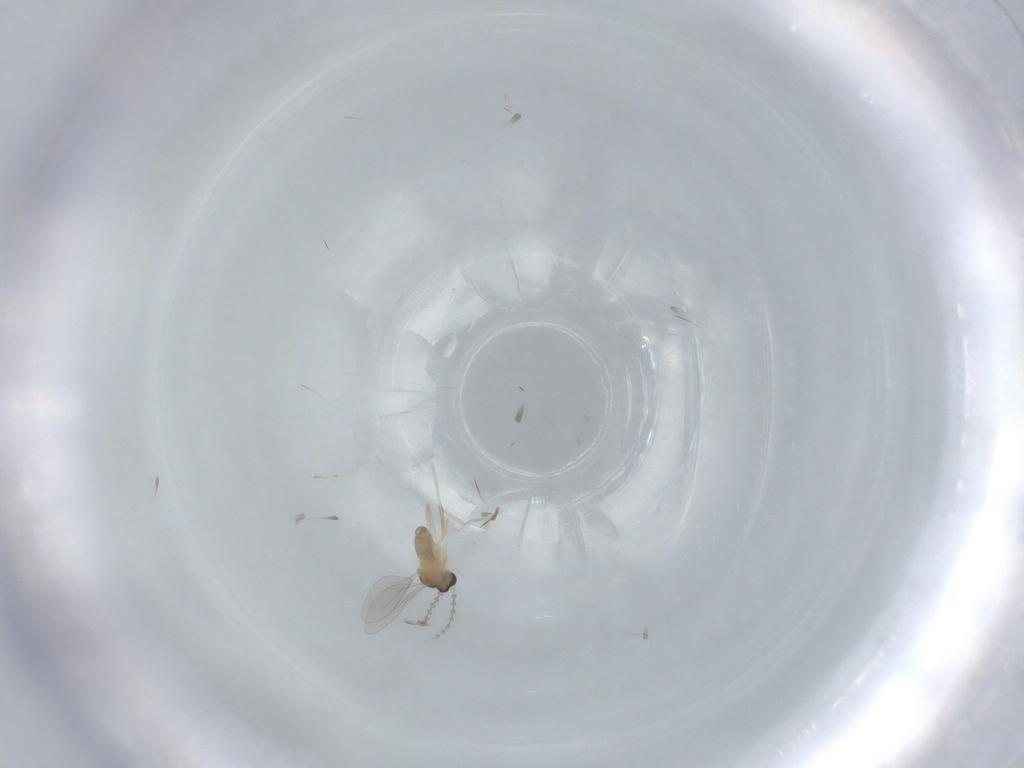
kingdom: Animalia
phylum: Arthropoda
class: Insecta
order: Diptera
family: Cecidomyiidae
